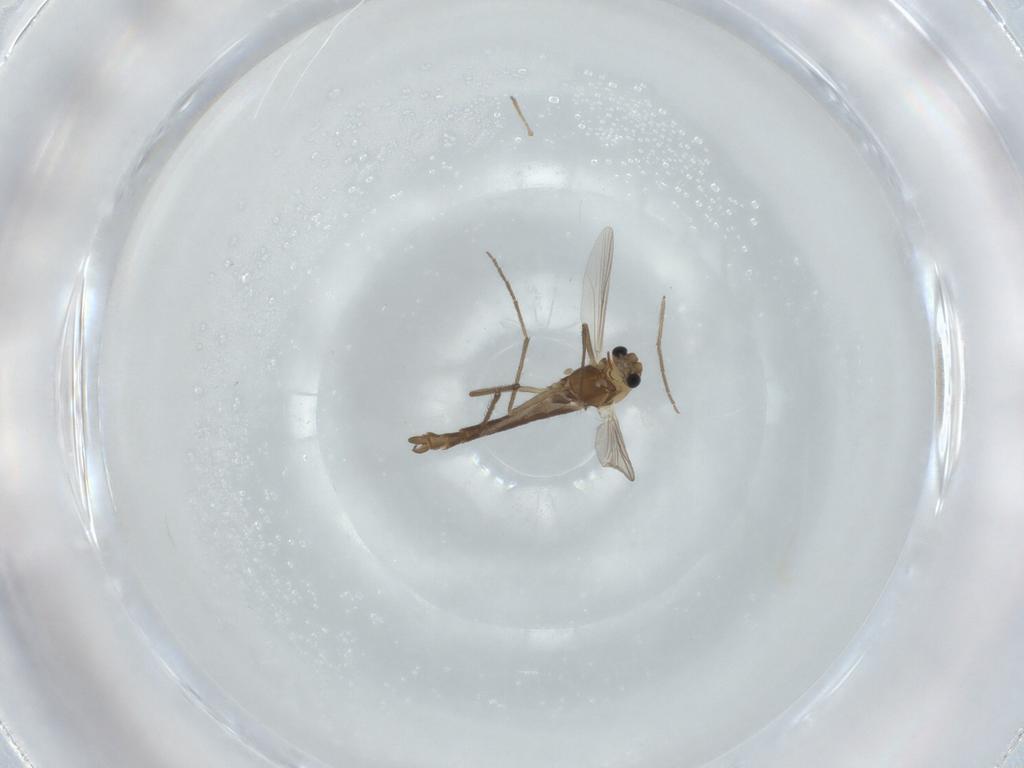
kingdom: Animalia
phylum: Arthropoda
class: Insecta
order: Diptera
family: Chironomidae
